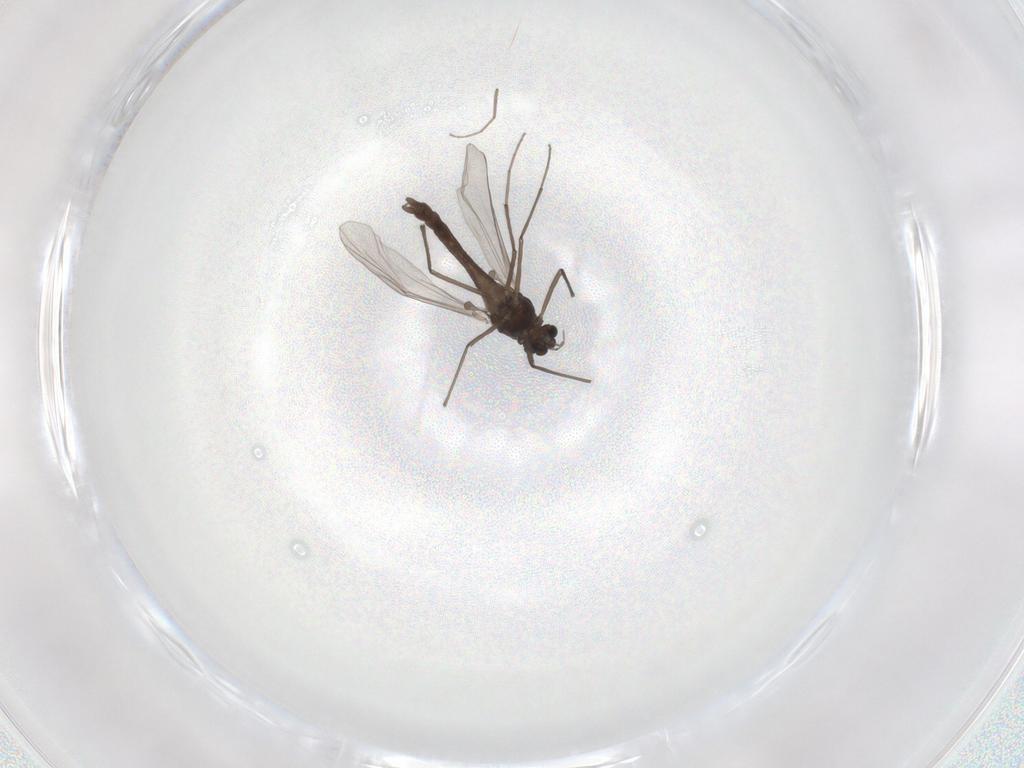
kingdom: Animalia
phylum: Arthropoda
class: Insecta
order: Diptera
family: Chironomidae
